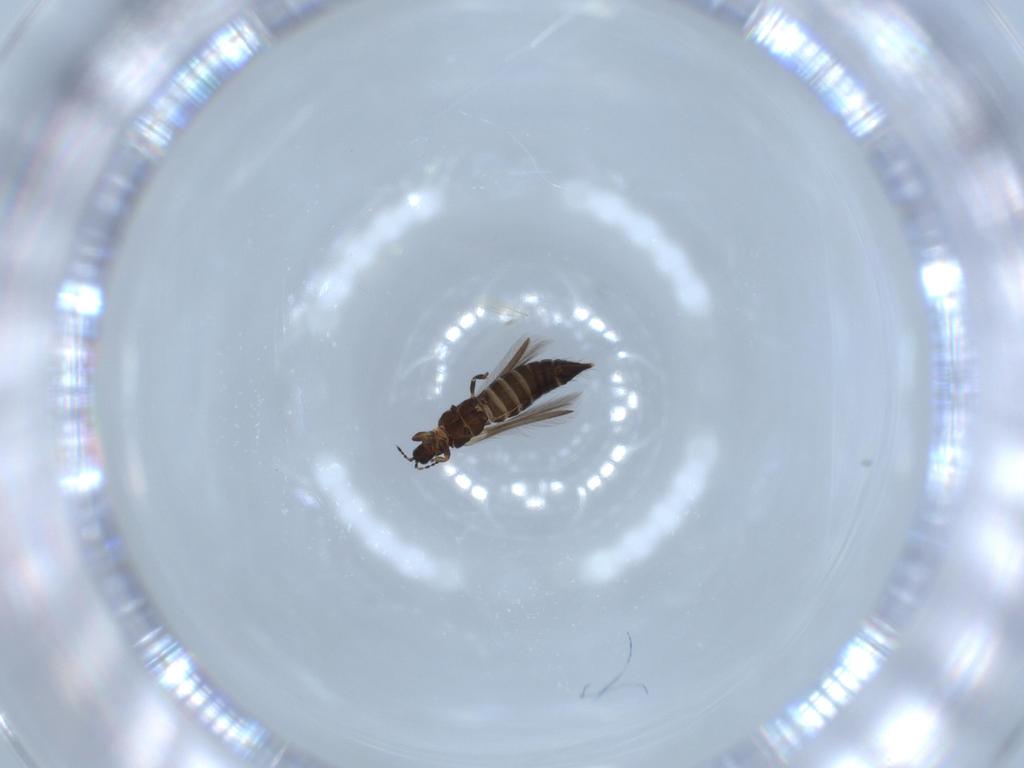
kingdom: Animalia
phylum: Arthropoda
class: Insecta
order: Thysanoptera
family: Thripidae
